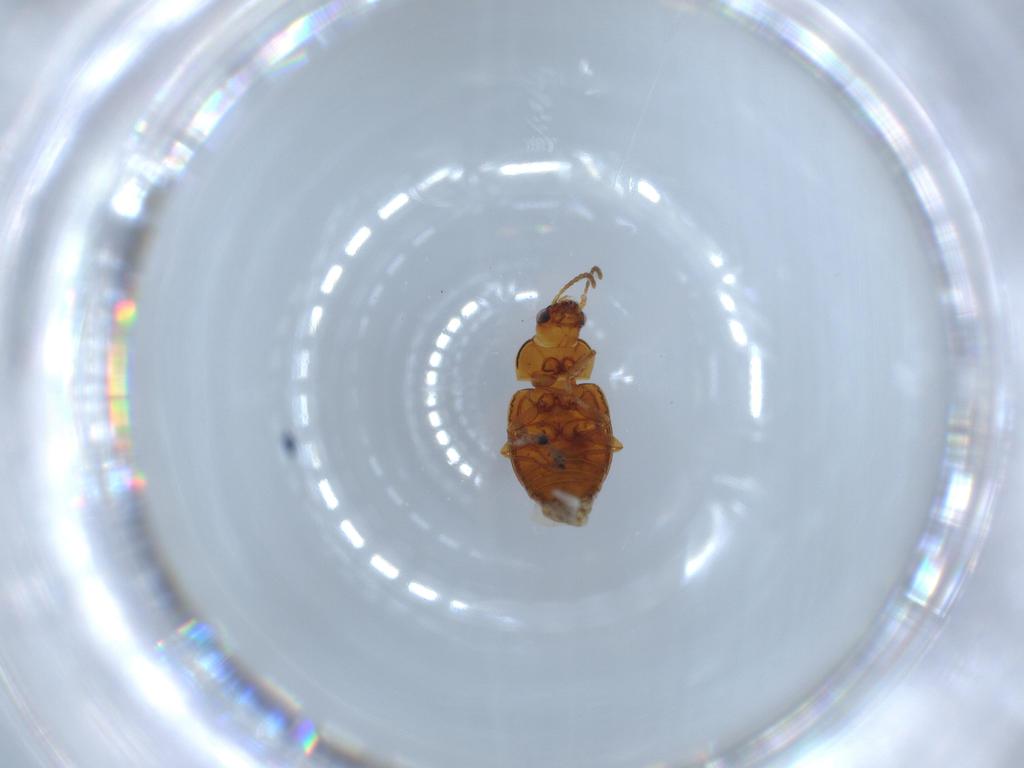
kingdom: Animalia
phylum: Arthropoda
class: Insecta
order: Coleoptera
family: Carabidae
